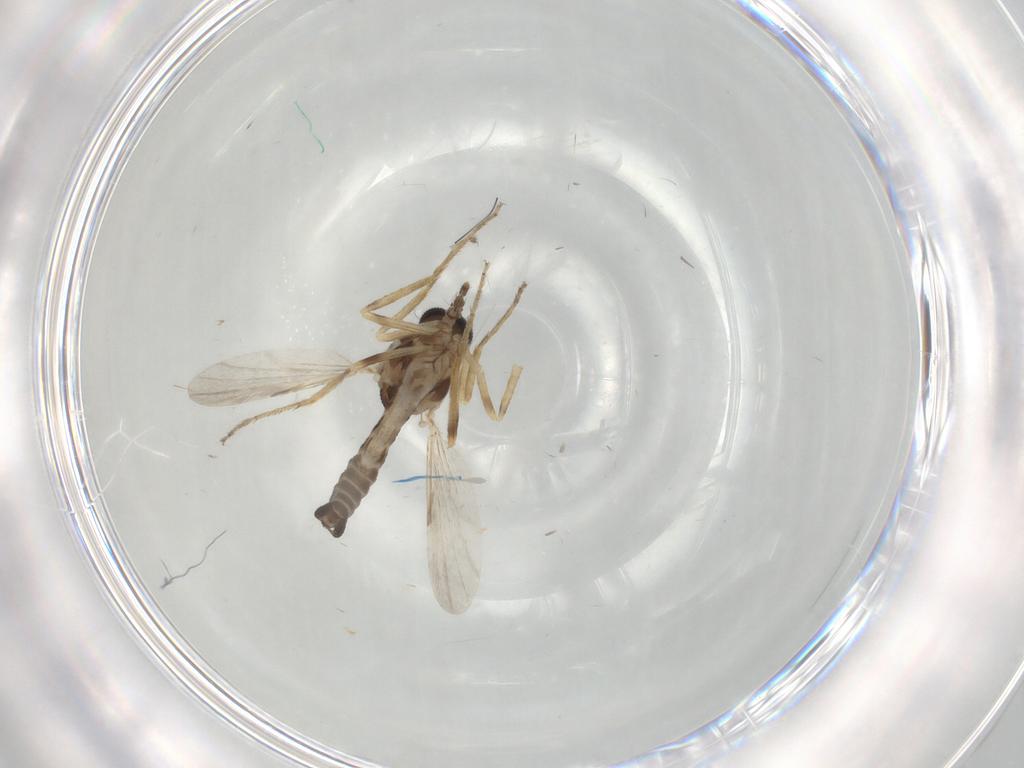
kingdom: Animalia
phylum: Arthropoda
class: Insecta
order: Diptera
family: Ceratopogonidae
